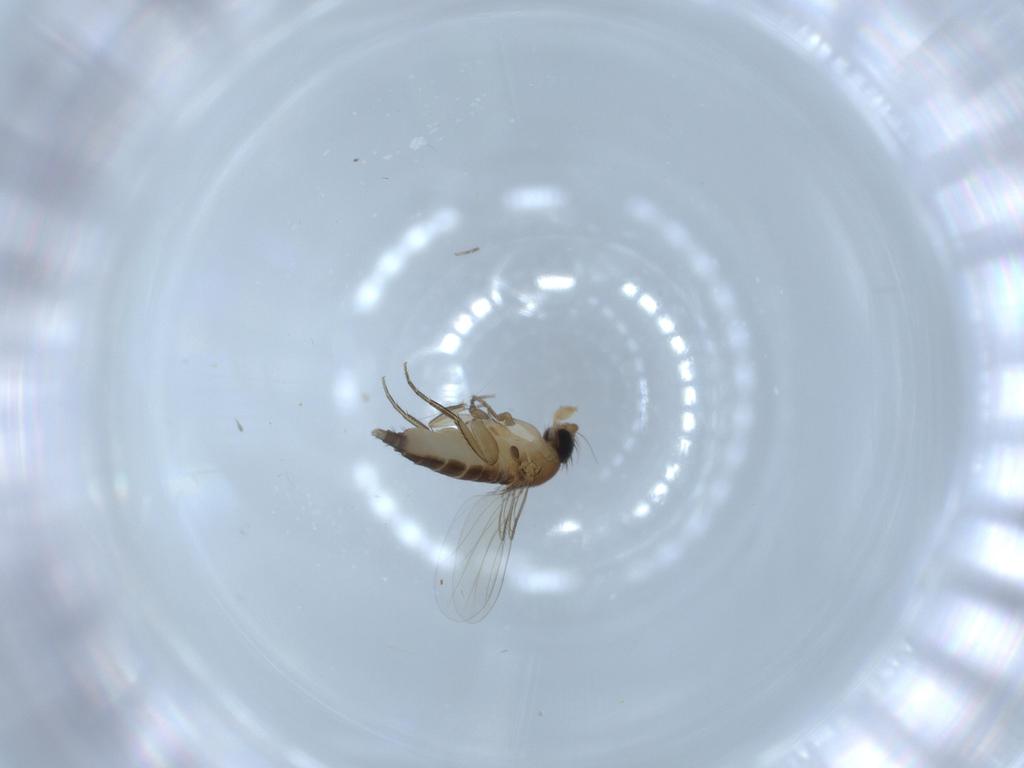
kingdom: Animalia
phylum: Arthropoda
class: Insecta
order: Diptera
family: Phoridae
